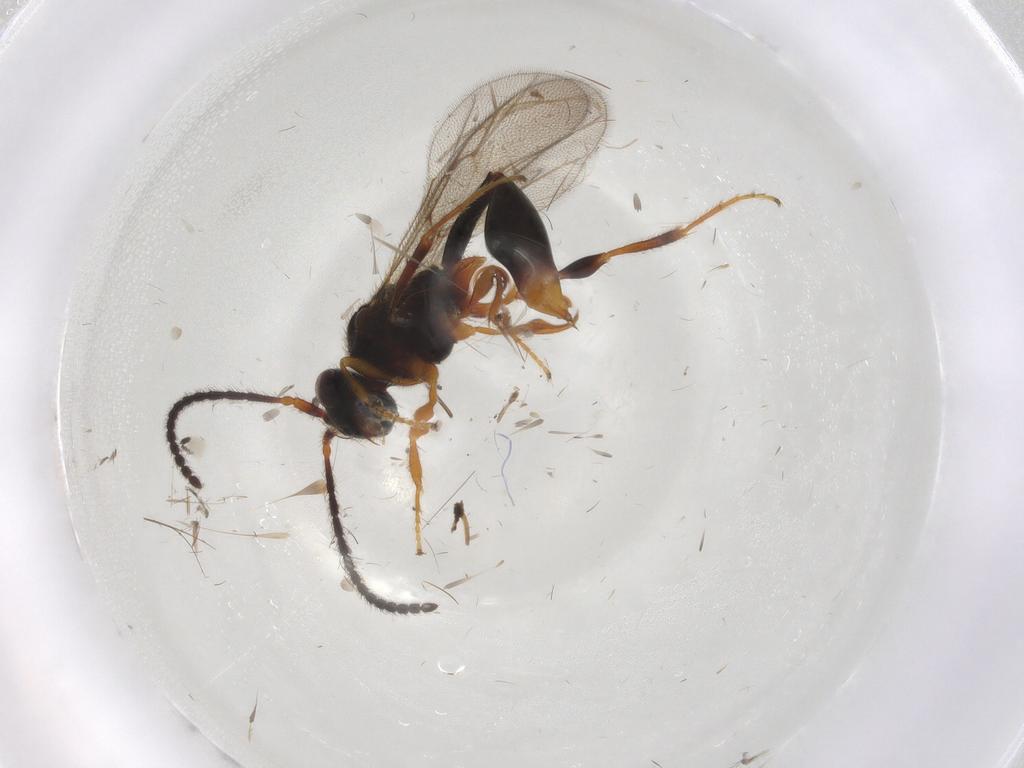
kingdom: Animalia
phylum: Arthropoda
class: Insecta
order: Hymenoptera
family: Diapriidae
